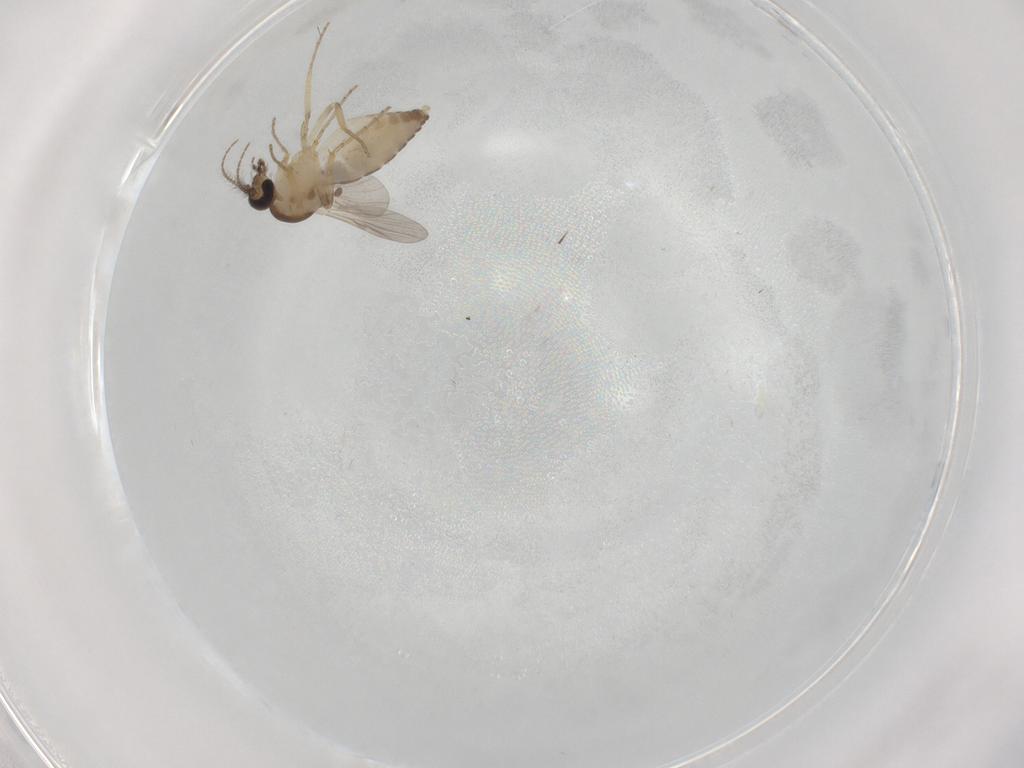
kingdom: Animalia
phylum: Arthropoda
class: Insecta
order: Diptera
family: Ceratopogonidae
